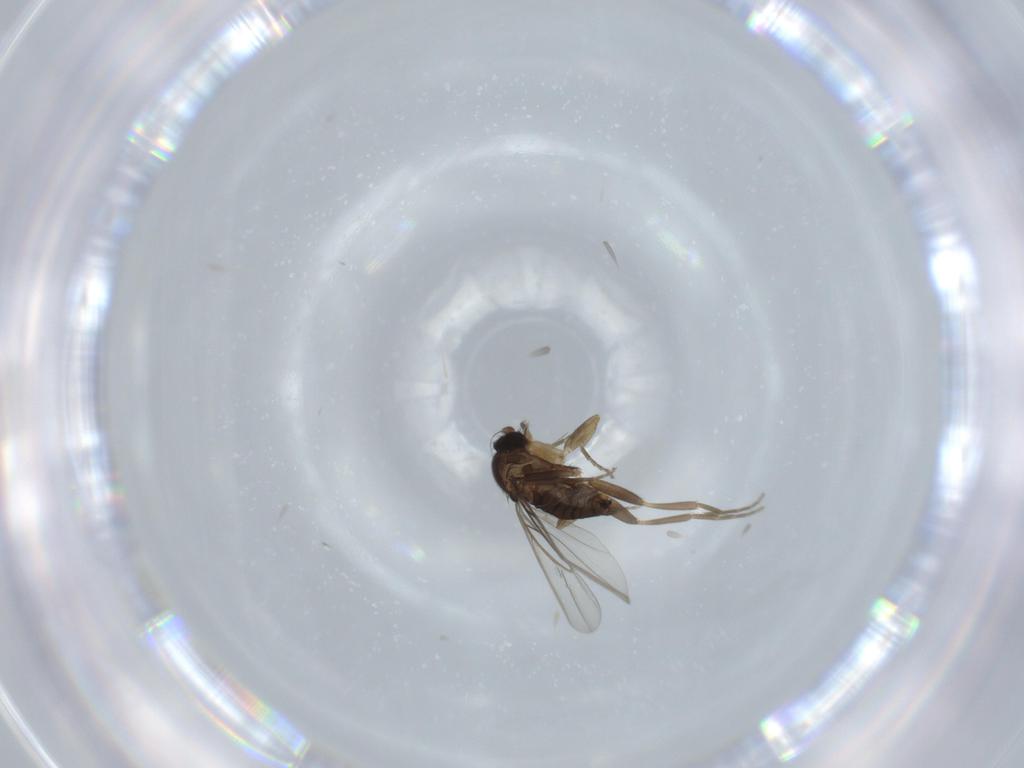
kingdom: Animalia
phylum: Arthropoda
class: Insecta
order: Diptera
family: Phoridae
